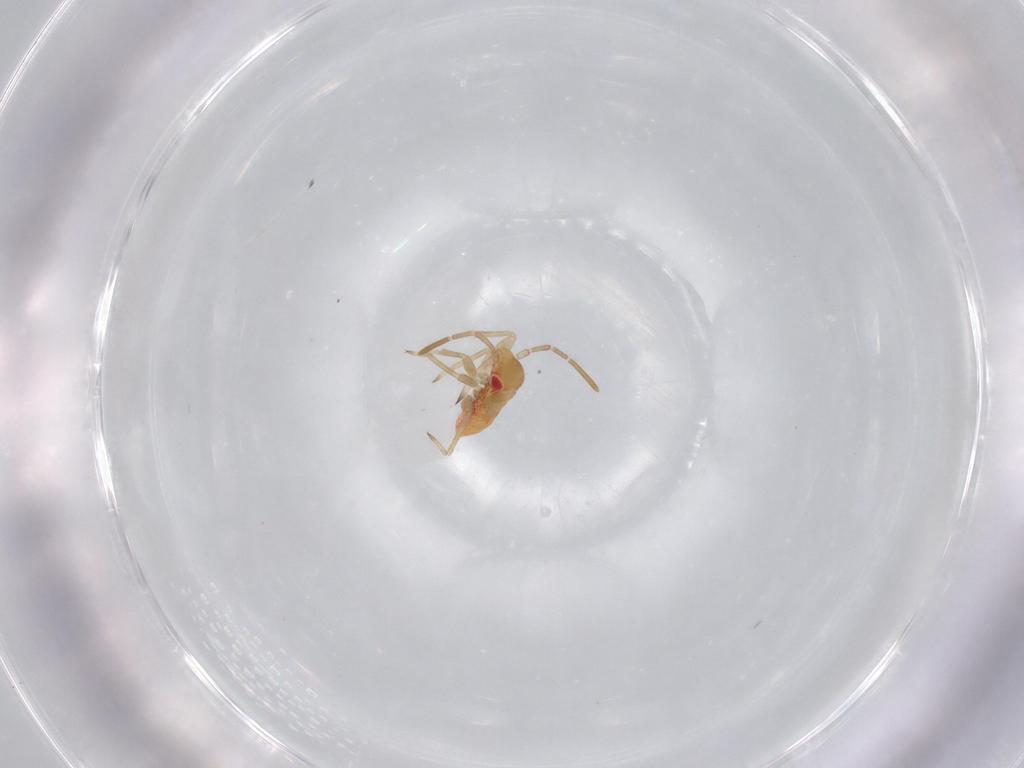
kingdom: Animalia
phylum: Arthropoda
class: Insecta
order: Hemiptera
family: Miridae
